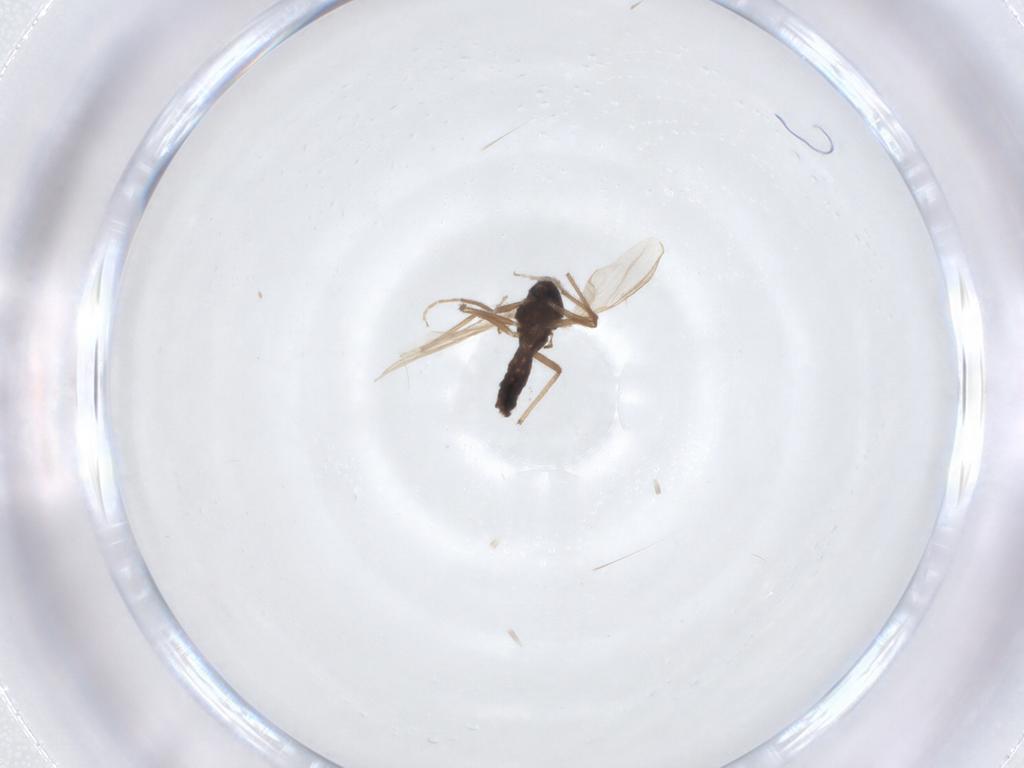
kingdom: Animalia
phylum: Arthropoda
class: Insecta
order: Diptera
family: Chironomidae
